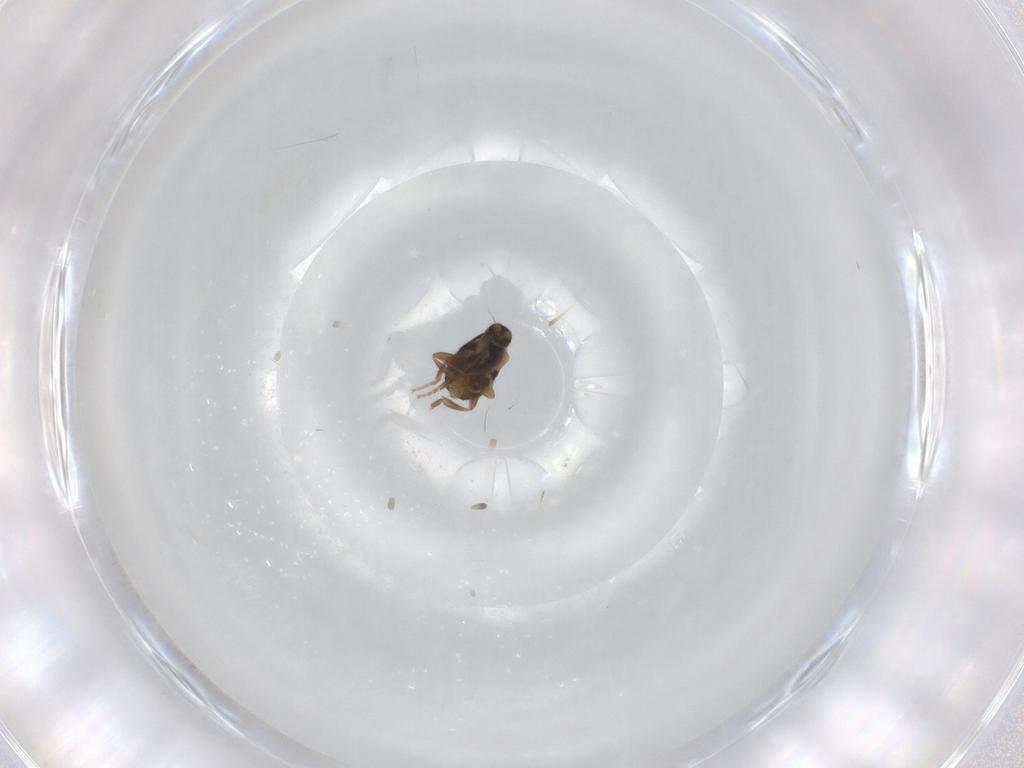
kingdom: Animalia
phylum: Arthropoda
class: Insecta
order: Diptera
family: Phoridae
